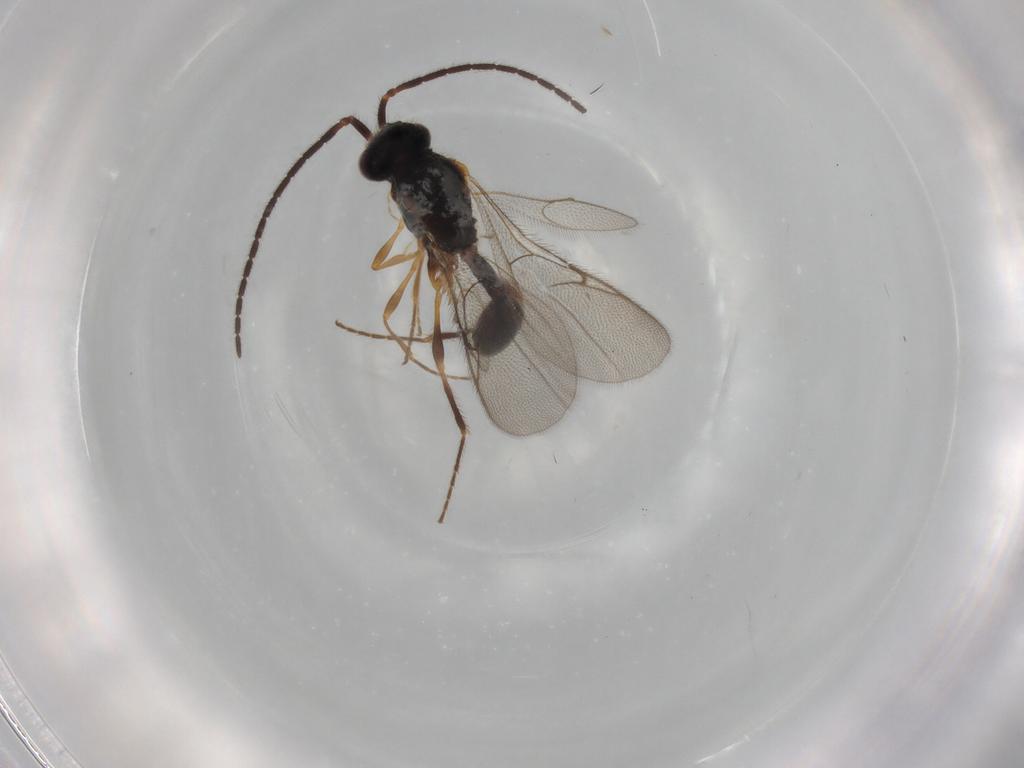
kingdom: Animalia
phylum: Arthropoda
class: Insecta
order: Hymenoptera
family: Diapriidae
